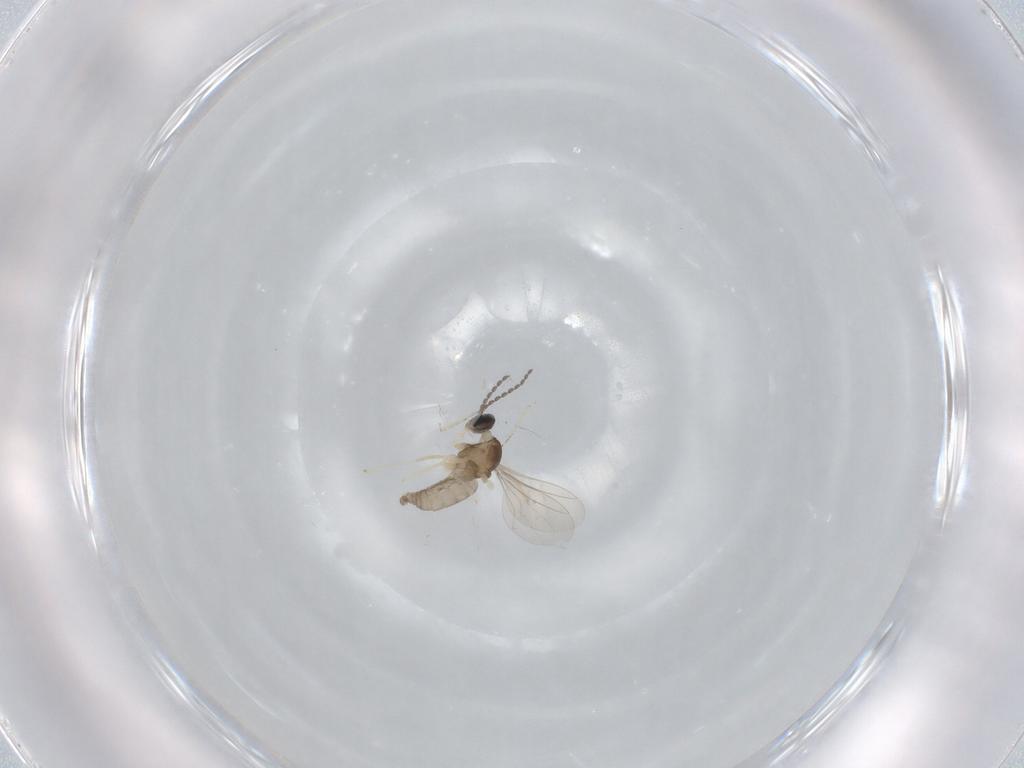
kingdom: Animalia
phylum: Arthropoda
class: Insecta
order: Diptera
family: Cecidomyiidae
